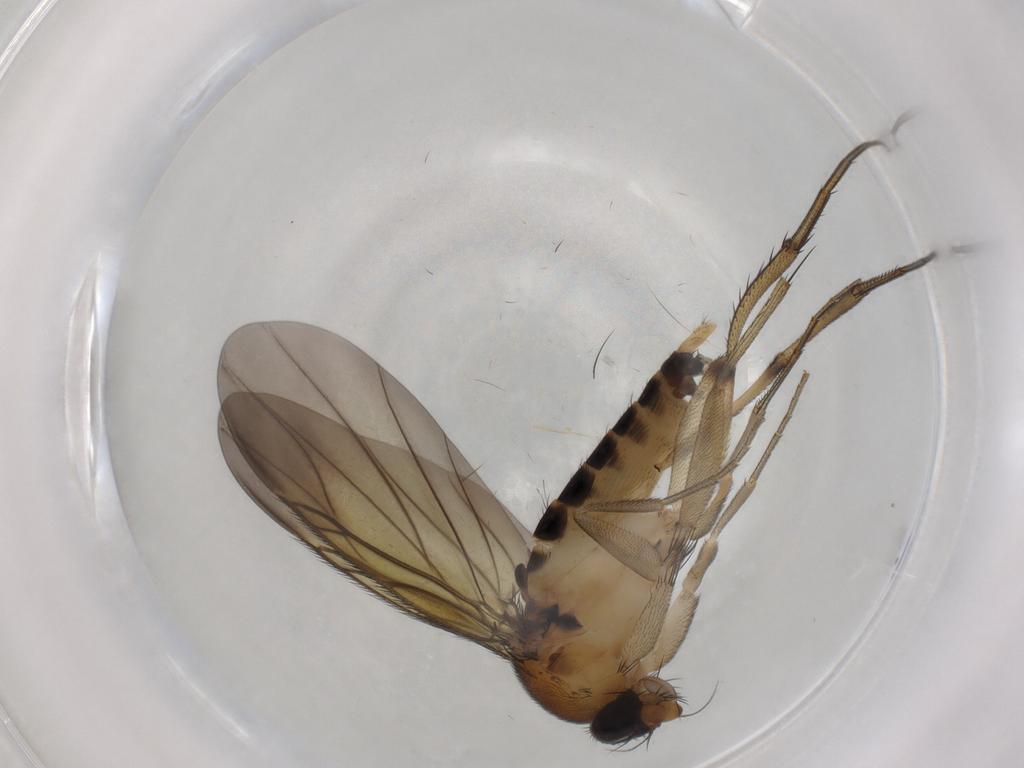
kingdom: Animalia
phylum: Arthropoda
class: Insecta
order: Diptera
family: Phoridae
